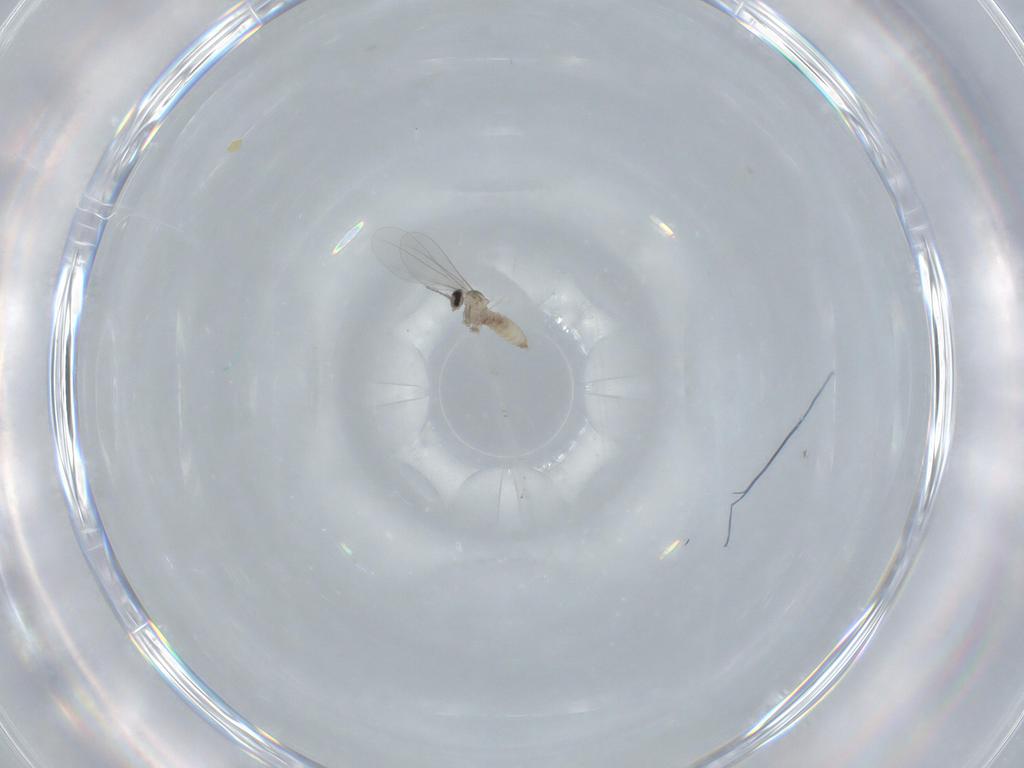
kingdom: Animalia
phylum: Arthropoda
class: Insecta
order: Diptera
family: Cecidomyiidae
